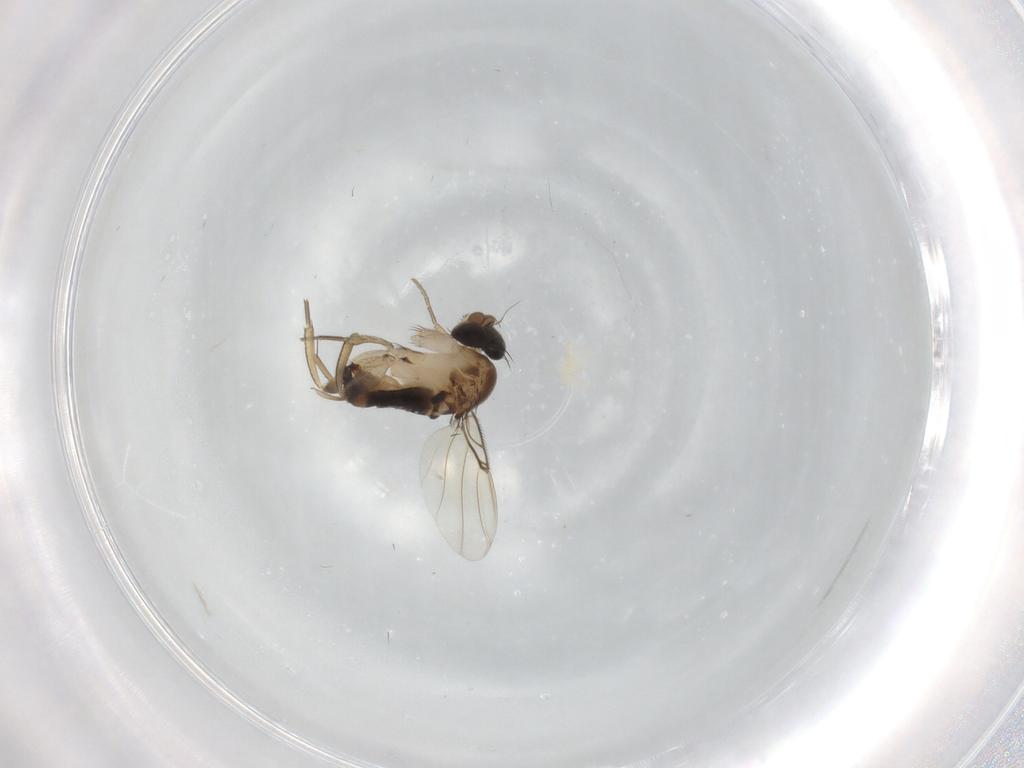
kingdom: Animalia
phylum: Arthropoda
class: Insecta
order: Diptera
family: Phoridae
